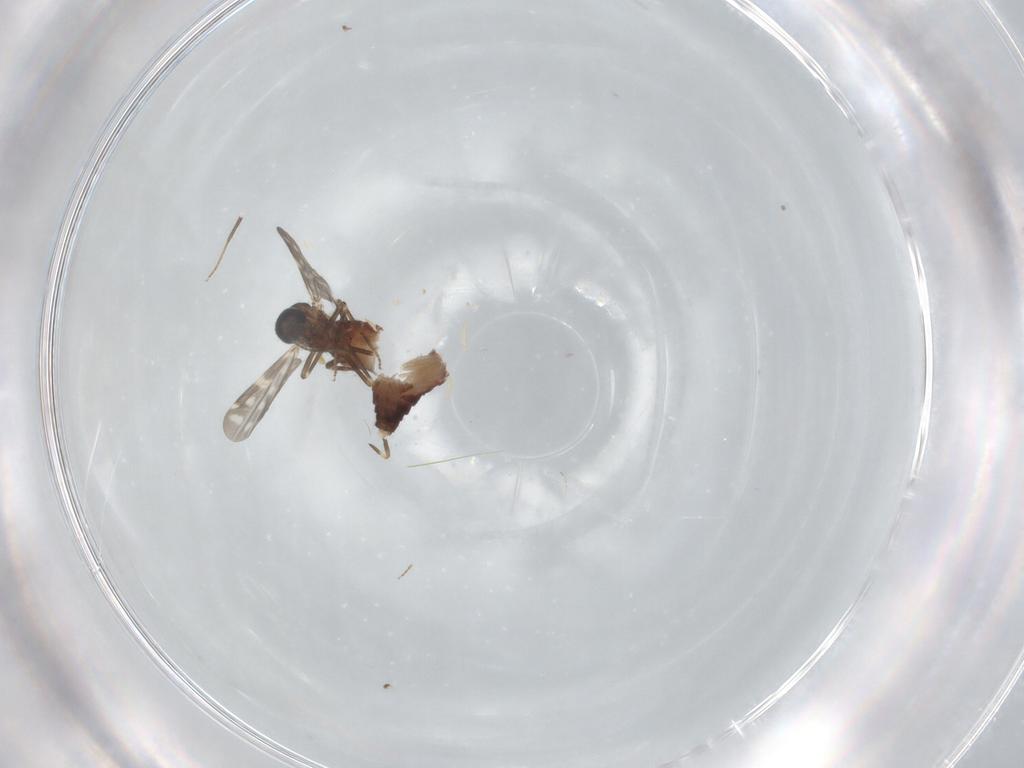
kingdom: Animalia
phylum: Arthropoda
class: Insecta
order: Diptera
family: Ceratopogonidae
